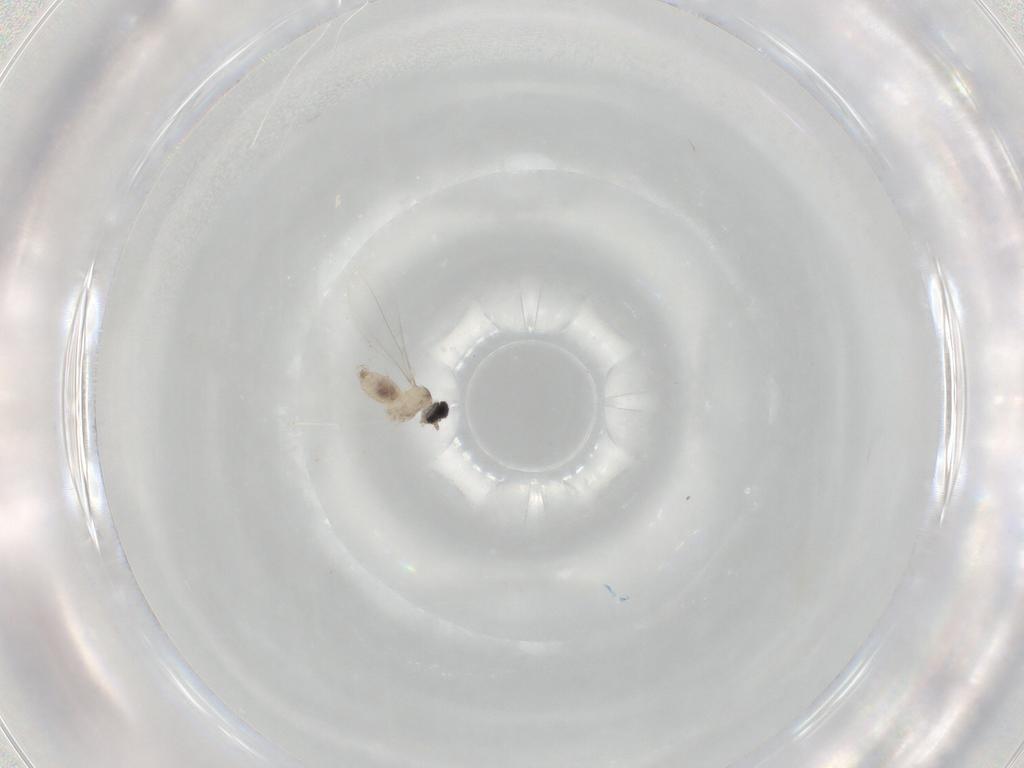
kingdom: Animalia
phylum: Arthropoda
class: Insecta
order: Diptera
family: Cecidomyiidae
